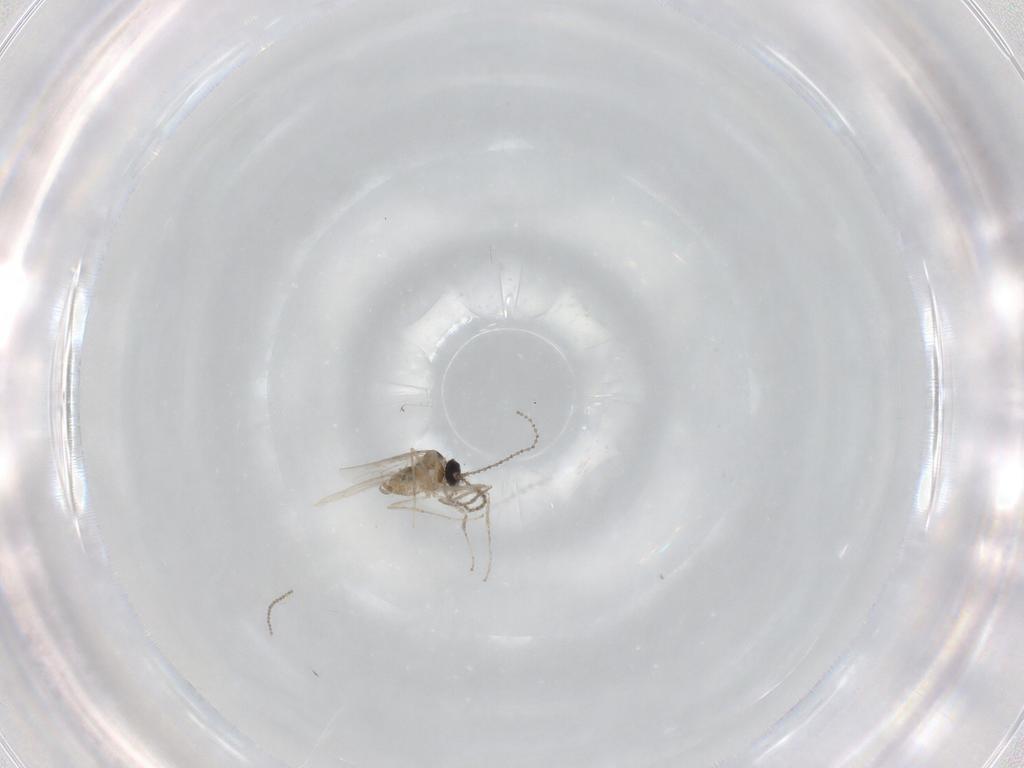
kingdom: Animalia
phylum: Arthropoda
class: Insecta
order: Diptera
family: Cecidomyiidae
